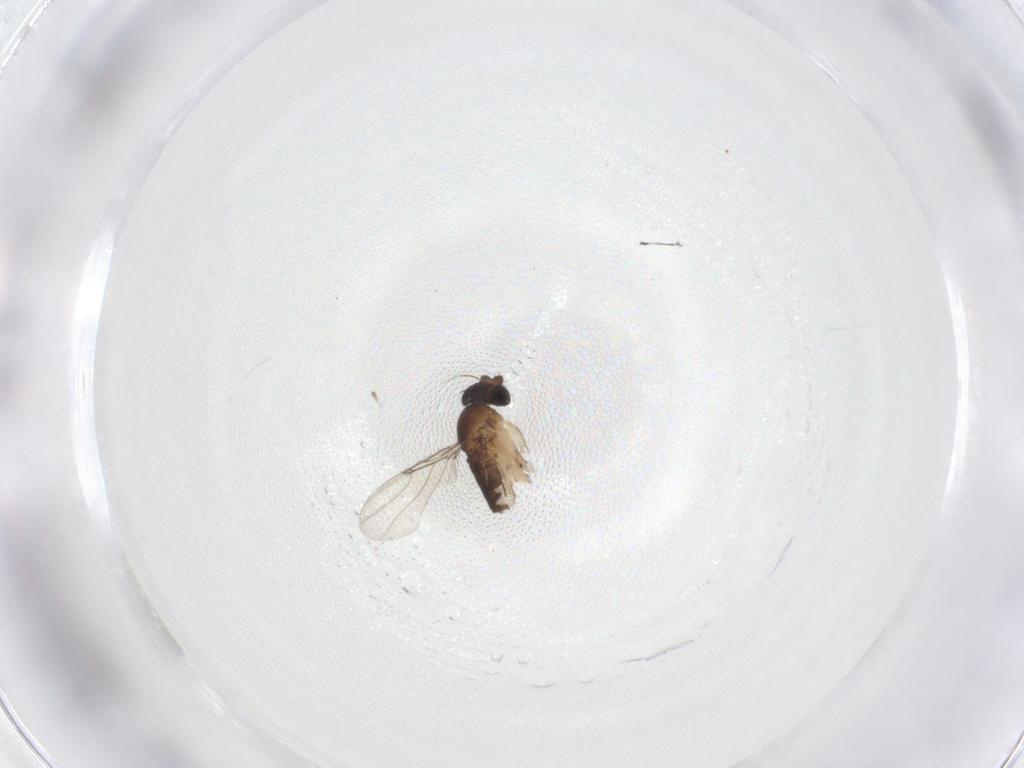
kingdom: Animalia
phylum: Arthropoda
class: Insecta
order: Diptera
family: Phoridae
